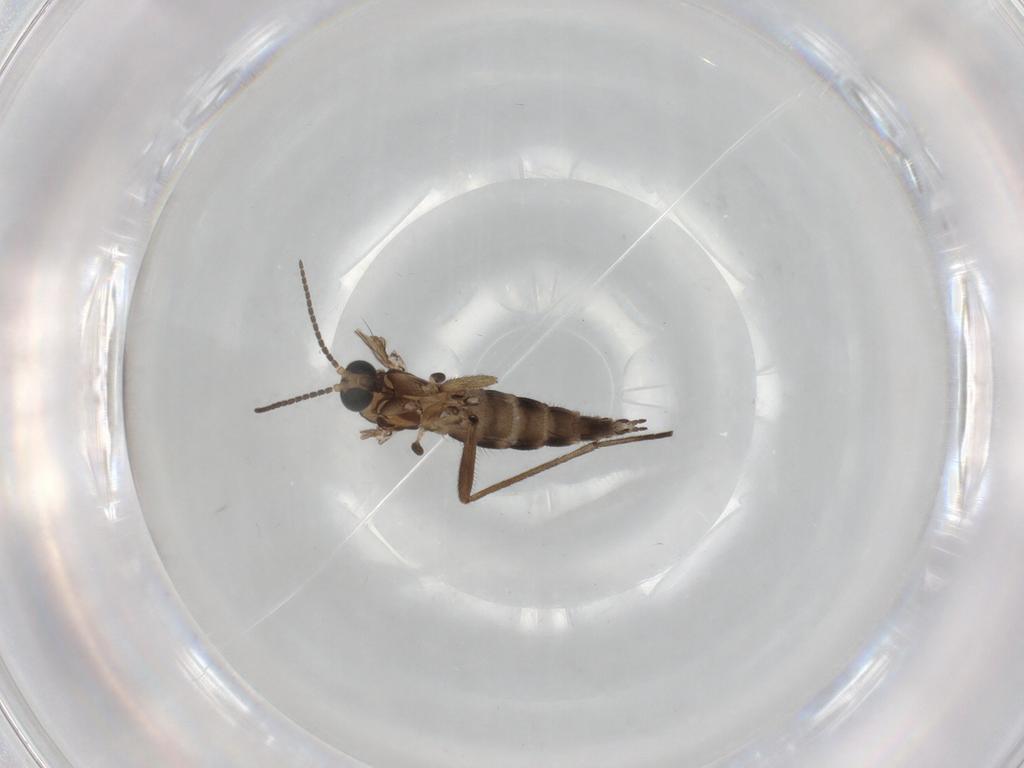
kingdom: Animalia
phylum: Arthropoda
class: Insecta
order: Diptera
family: Sciaridae
